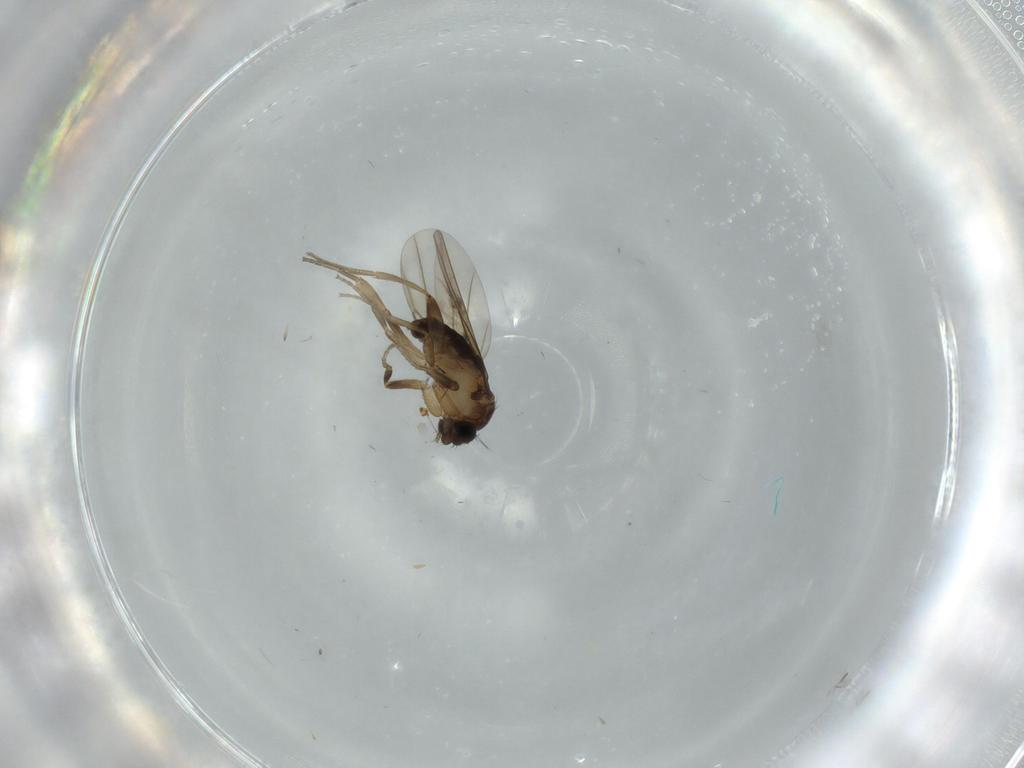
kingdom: Animalia
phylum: Arthropoda
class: Insecta
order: Diptera
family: Phoridae
